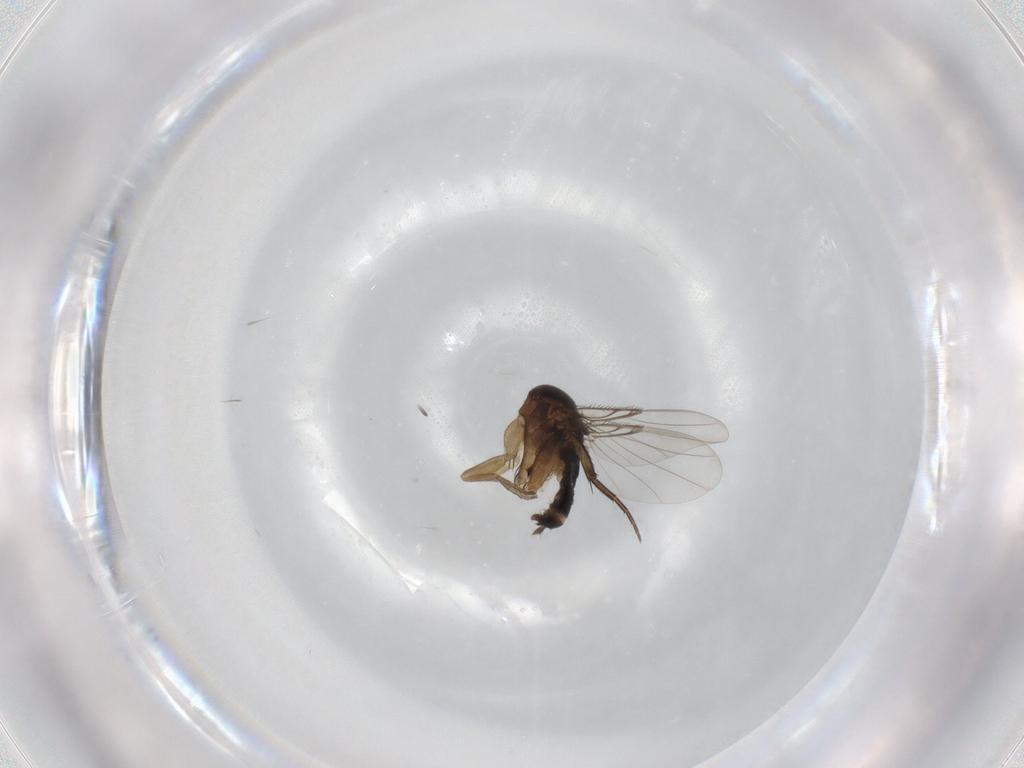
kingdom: Animalia
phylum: Arthropoda
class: Insecta
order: Diptera
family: Phoridae
